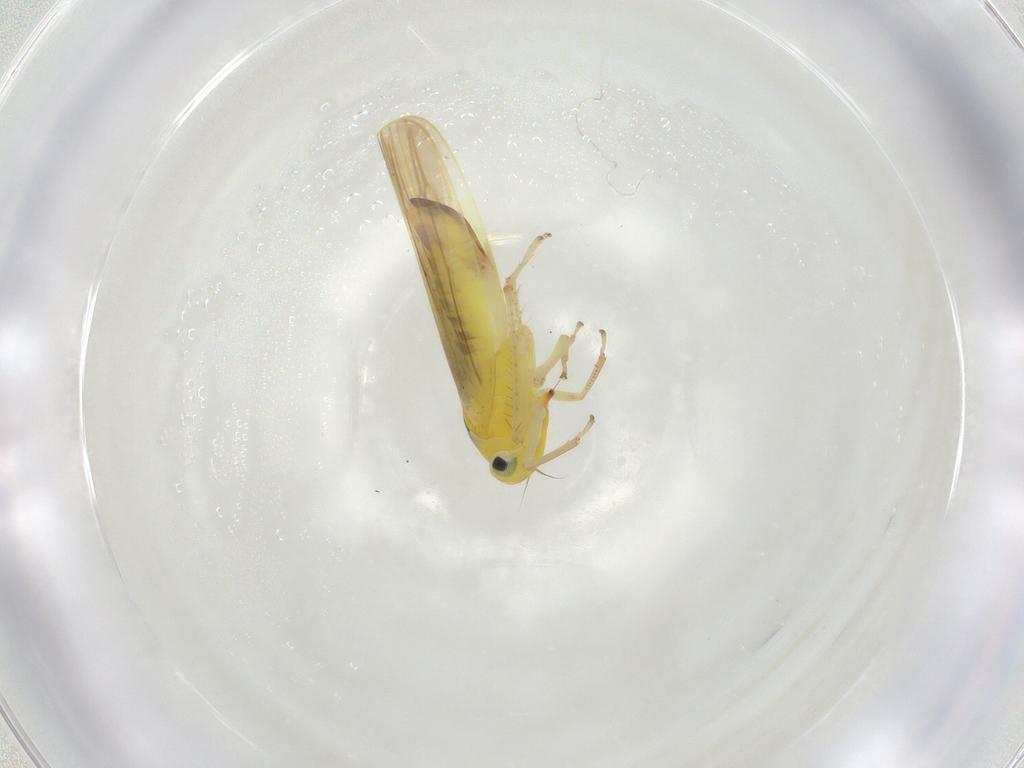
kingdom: Animalia
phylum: Arthropoda
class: Insecta
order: Hemiptera
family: Cicadellidae
